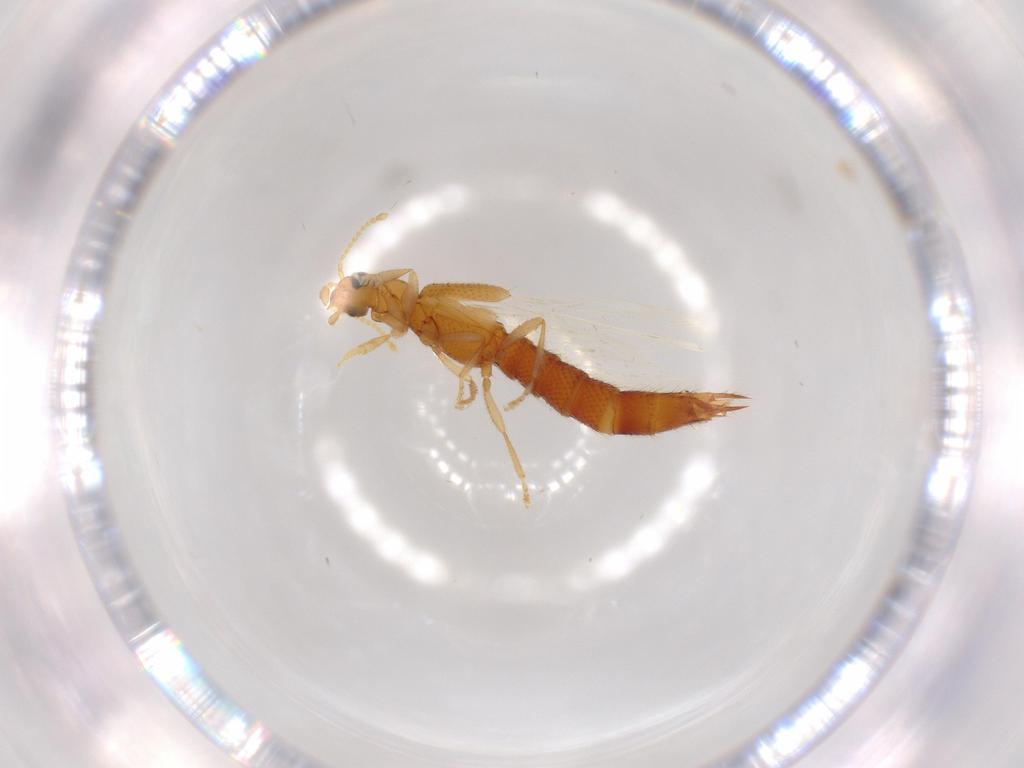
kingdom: Animalia
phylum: Arthropoda
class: Insecta
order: Coleoptera
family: Staphylinidae
